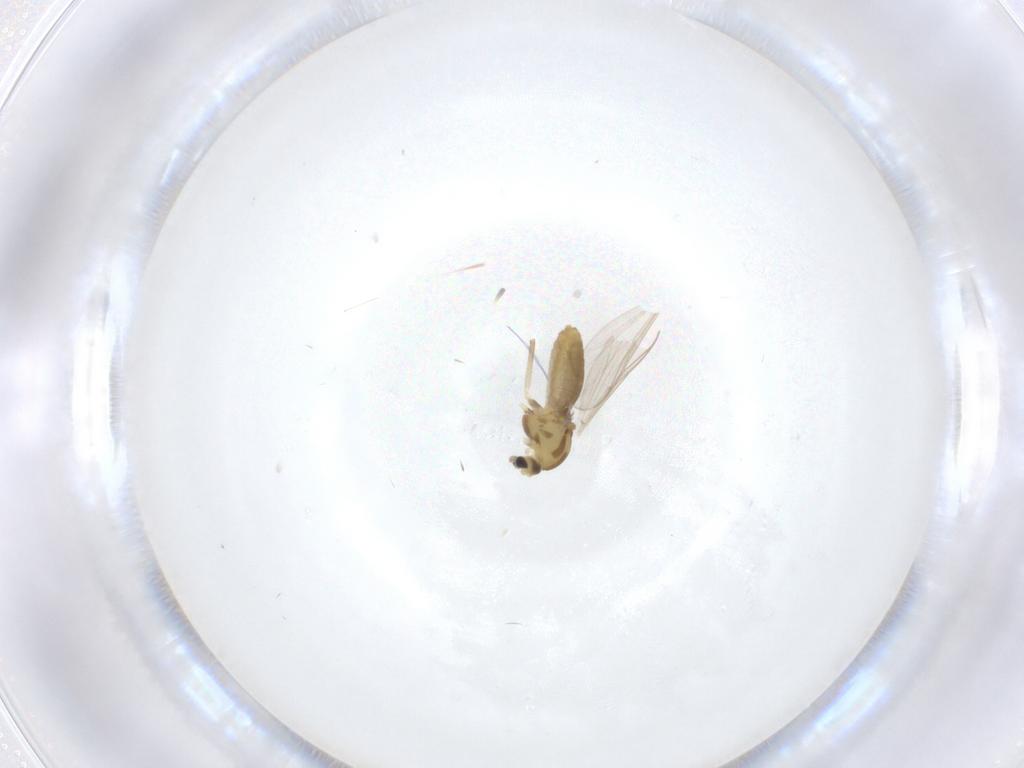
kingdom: Animalia
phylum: Arthropoda
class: Insecta
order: Diptera
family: Chironomidae
